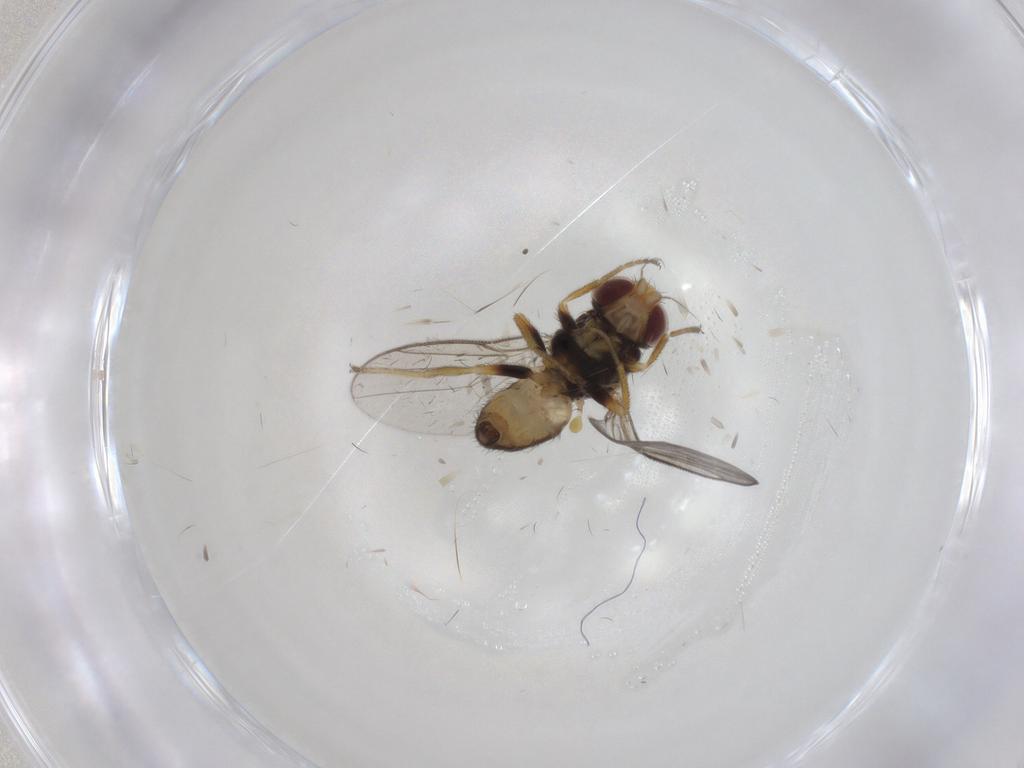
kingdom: Animalia
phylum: Arthropoda
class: Insecta
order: Diptera
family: Chloropidae
